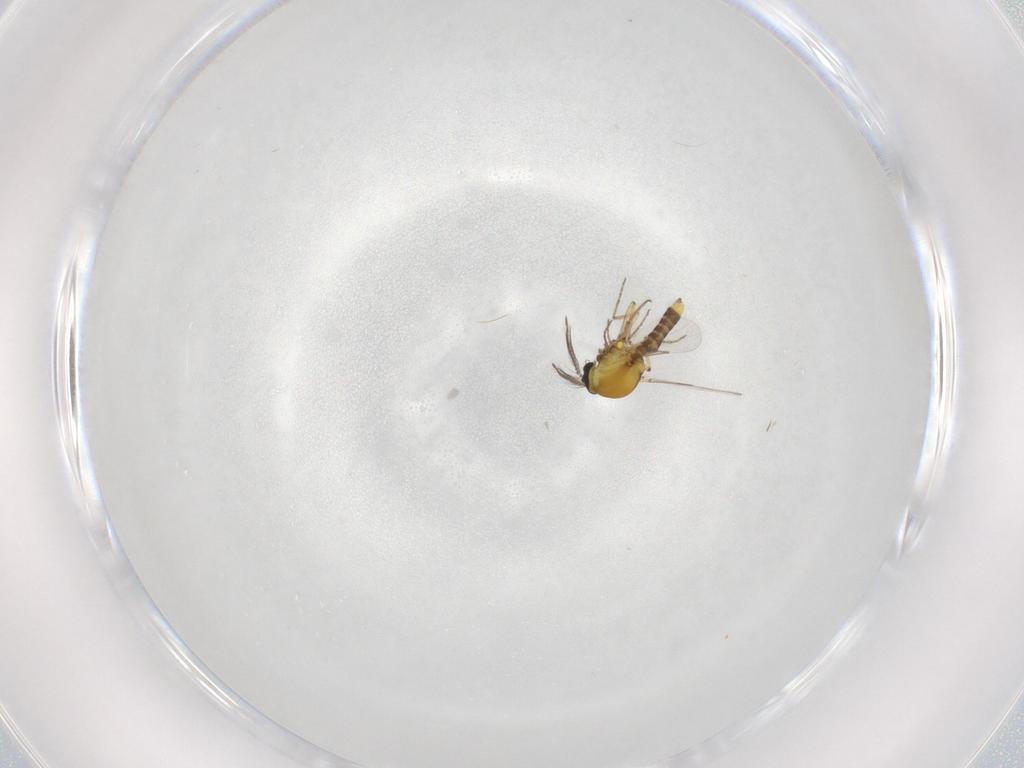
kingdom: Animalia
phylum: Arthropoda
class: Insecta
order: Diptera
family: Ceratopogonidae
